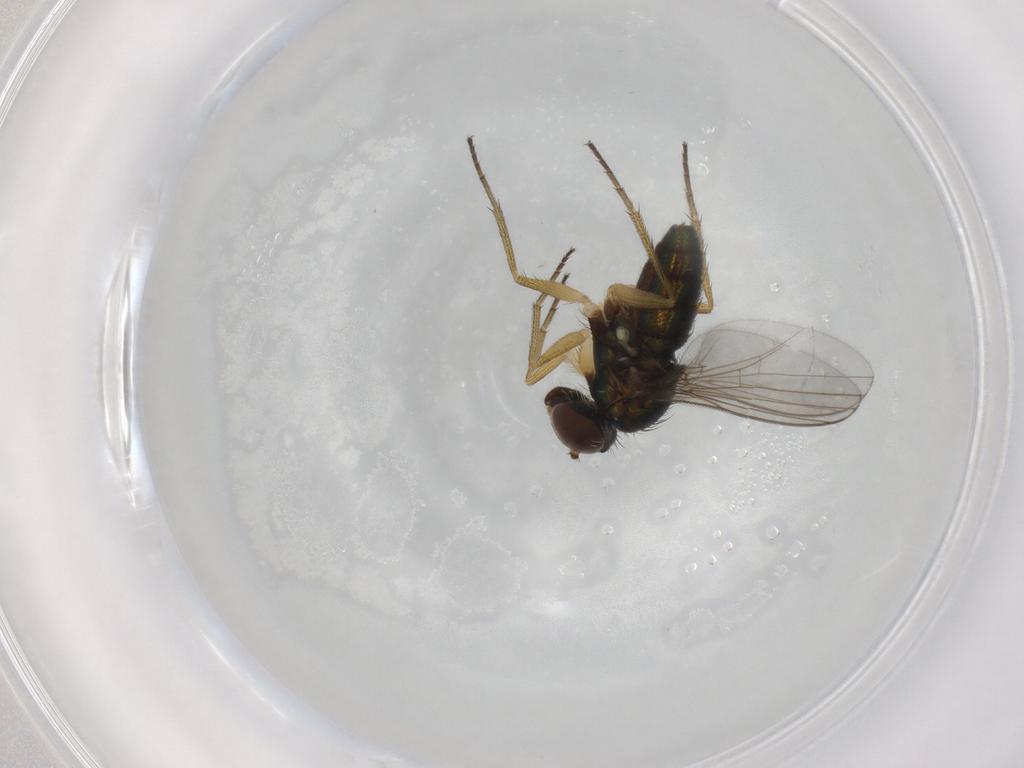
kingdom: Animalia
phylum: Arthropoda
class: Insecta
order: Diptera
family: Dolichopodidae
